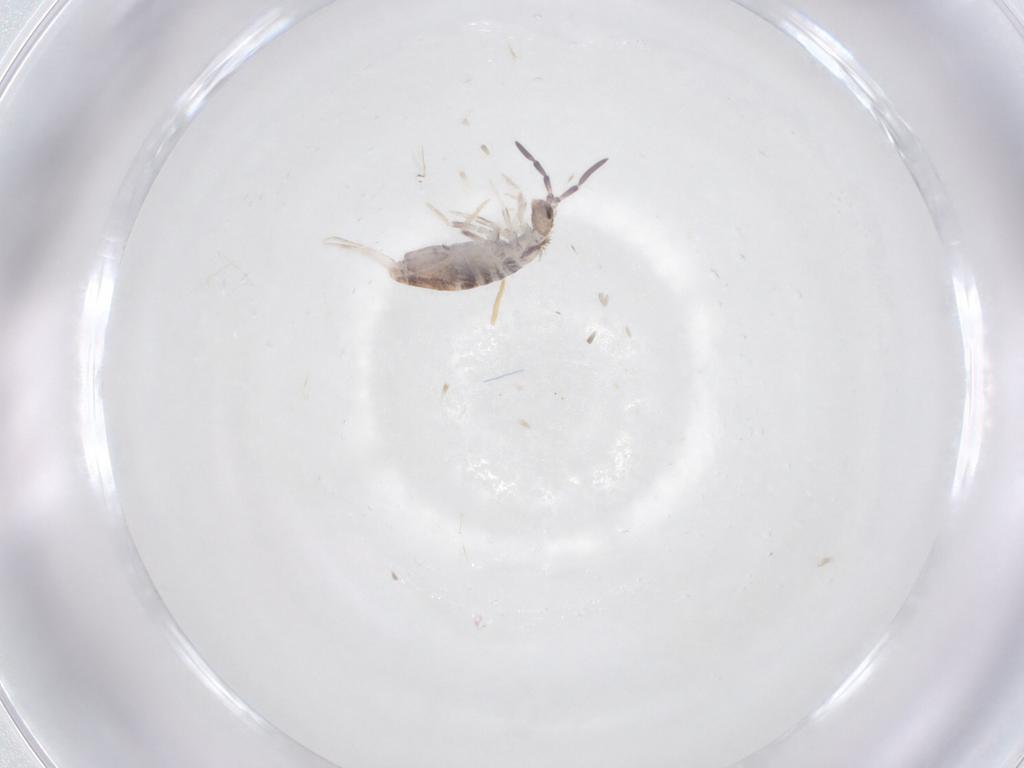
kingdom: Animalia
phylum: Arthropoda
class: Collembola
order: Poduromorpha
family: Hypogastruridae
